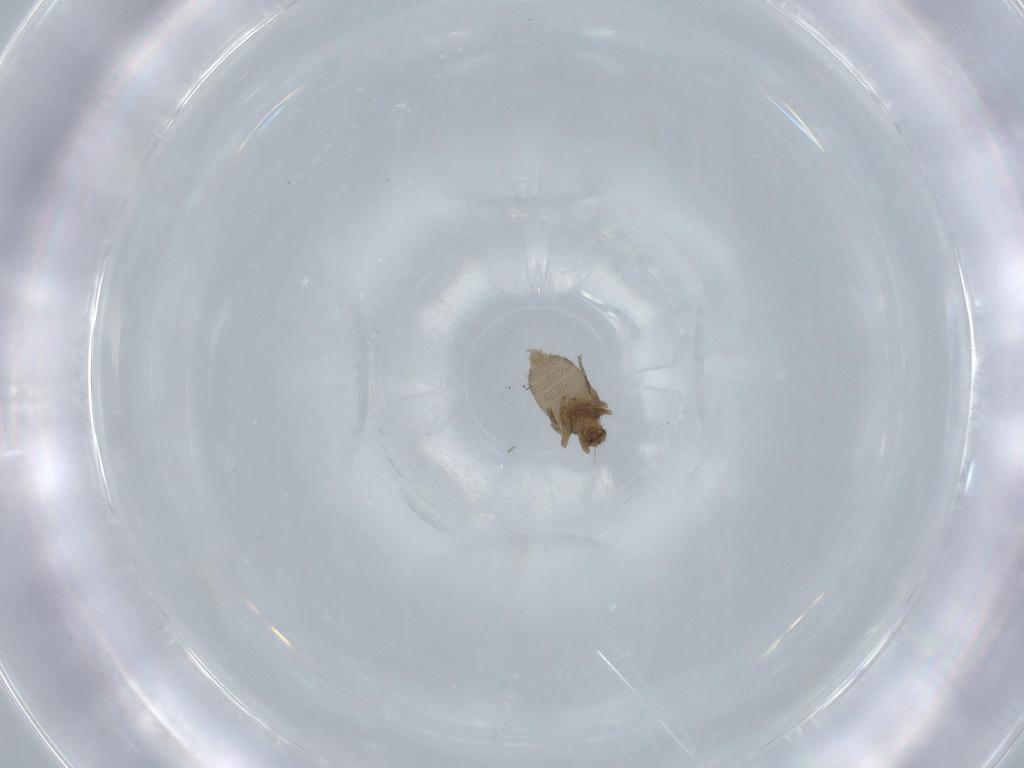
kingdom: Animalia
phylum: Arthropoda
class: Insecta
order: Diptera
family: Phoridae
